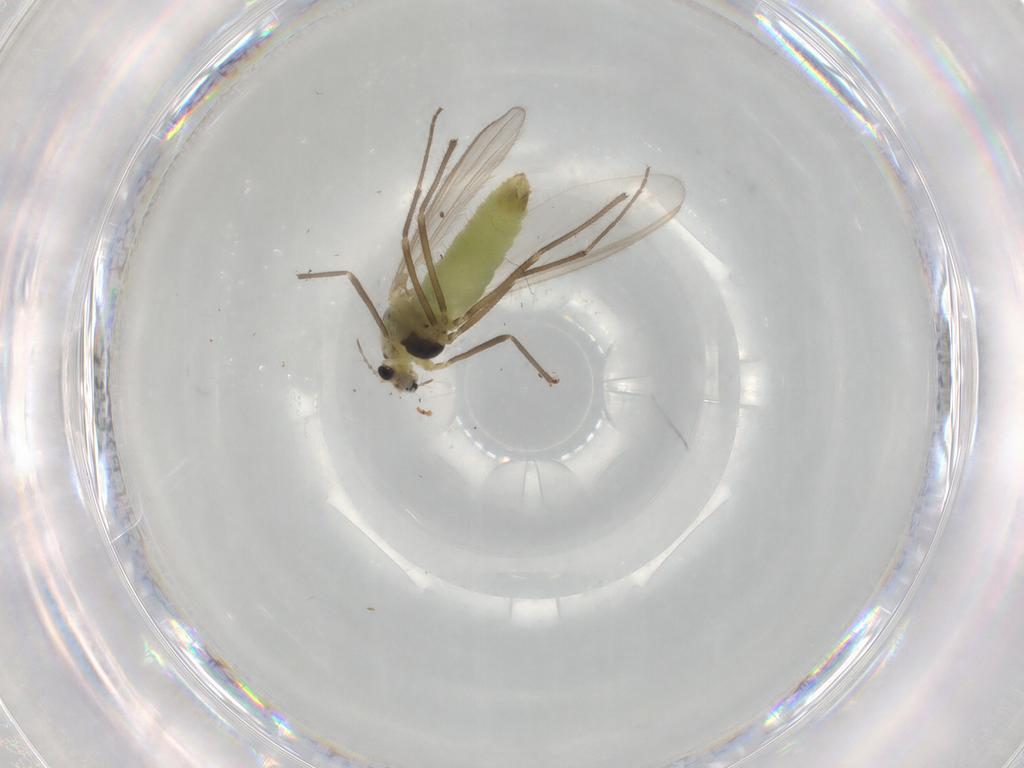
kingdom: Animalia
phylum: Arthropoda
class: Insecta
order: Diptera
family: Chironomidae
